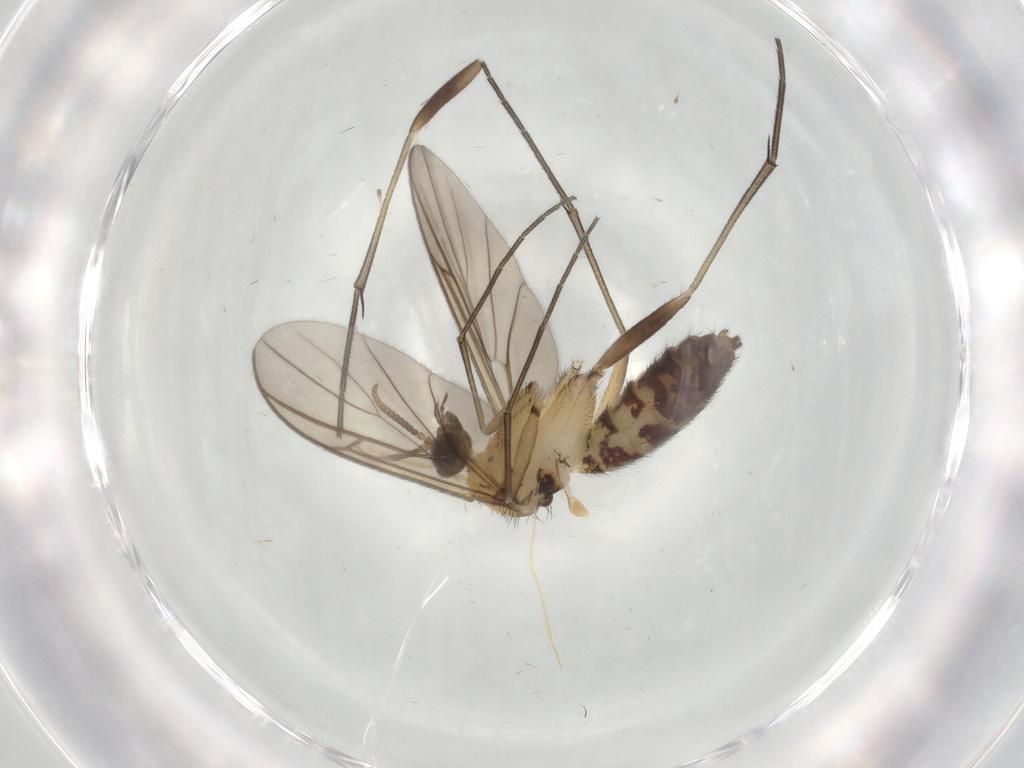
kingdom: Animalia
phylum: Arthropoda
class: Insecta
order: Diptera
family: Keroplatidae
